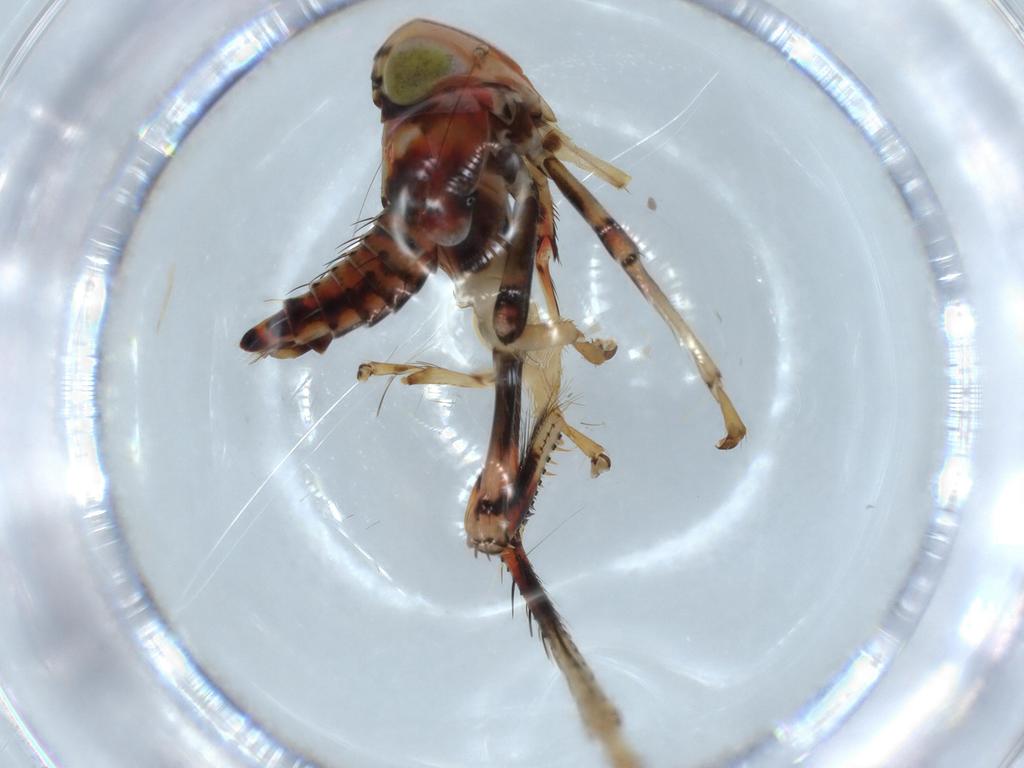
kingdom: Animalia
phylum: Arthropoda
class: Insecta
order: Hemiptera
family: Cicadellidae
